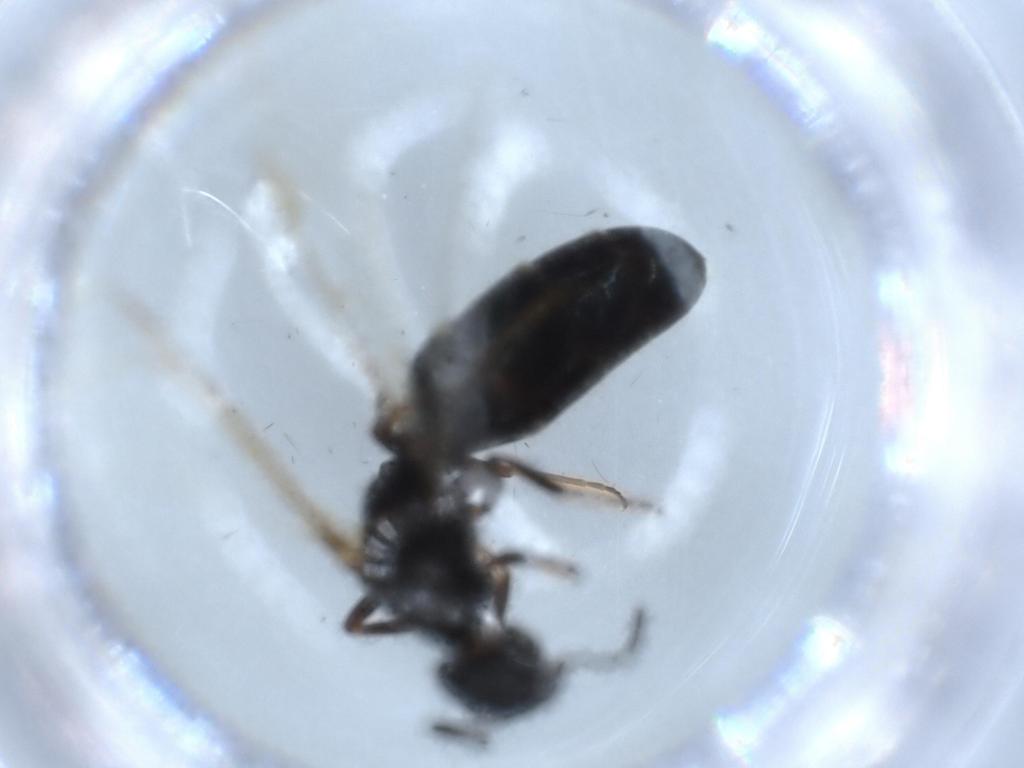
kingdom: Animalia
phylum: Arthropoda
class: Insecta
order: Hymenoptera
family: Formicidae
